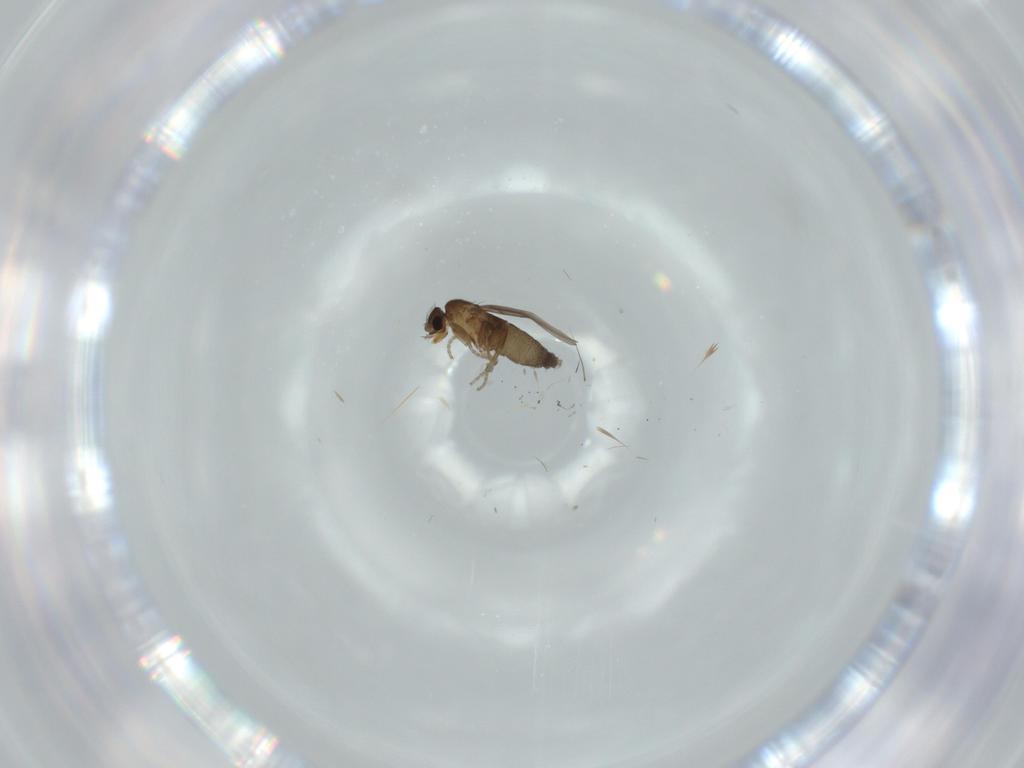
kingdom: Animalia
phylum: Arthropoda
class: Insecta
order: Diptera
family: Phoridae
